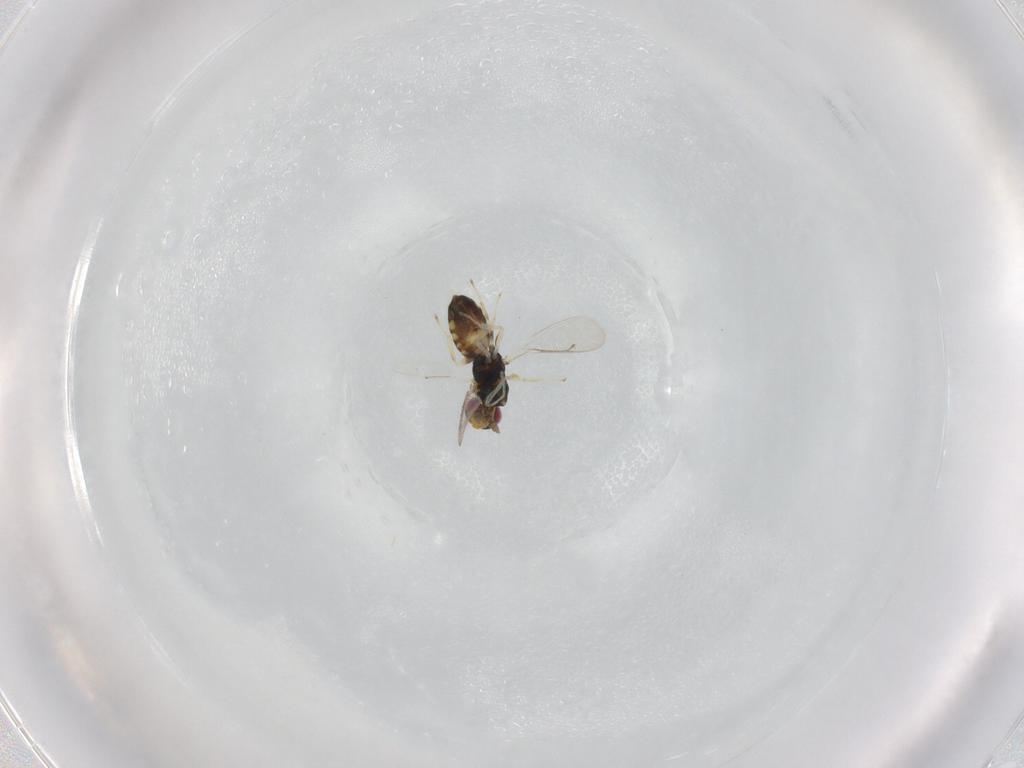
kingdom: Animalia
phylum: Arthropoda
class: Insecta
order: Hymenoptera
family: Eulophidae
